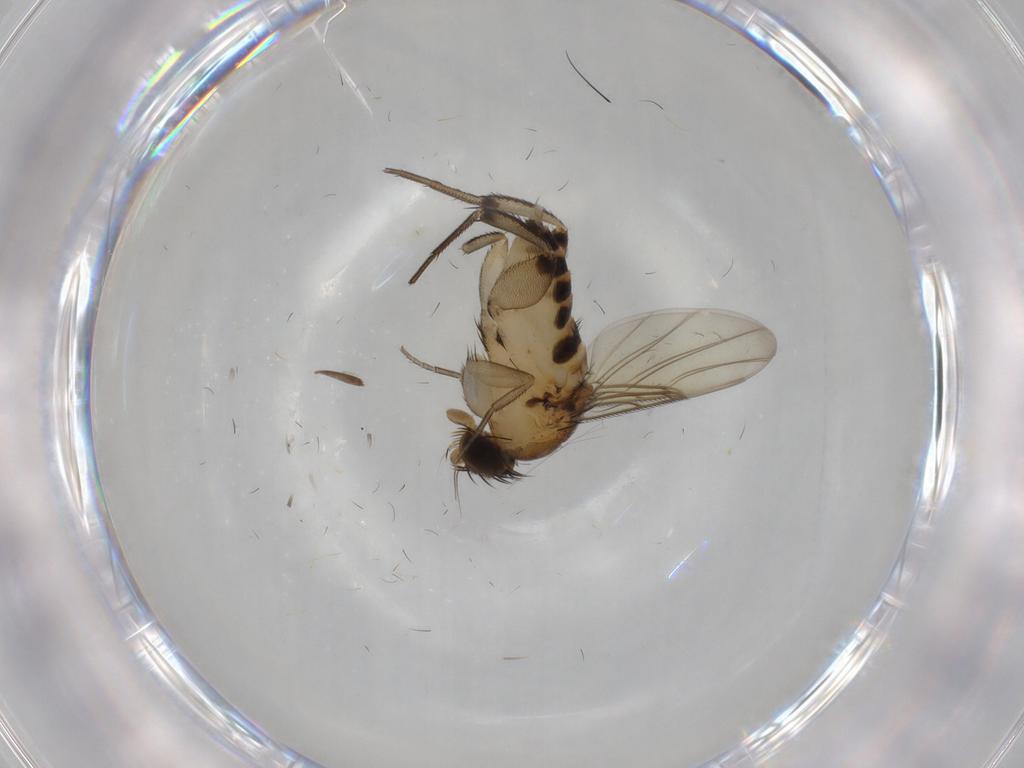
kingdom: Animalia
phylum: Arthropoda
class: Insecta
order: Diptera
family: Phoridae
